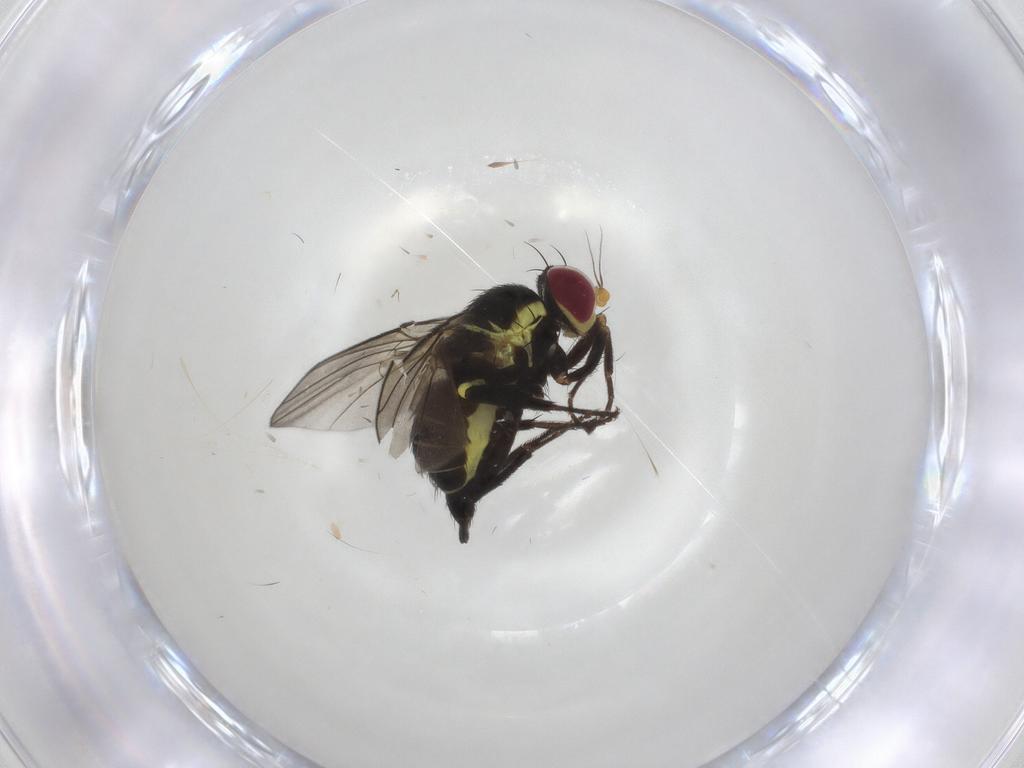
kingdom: Animalia
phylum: Arthropoda
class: Insecta
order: Diptera
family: Agromyzidae
